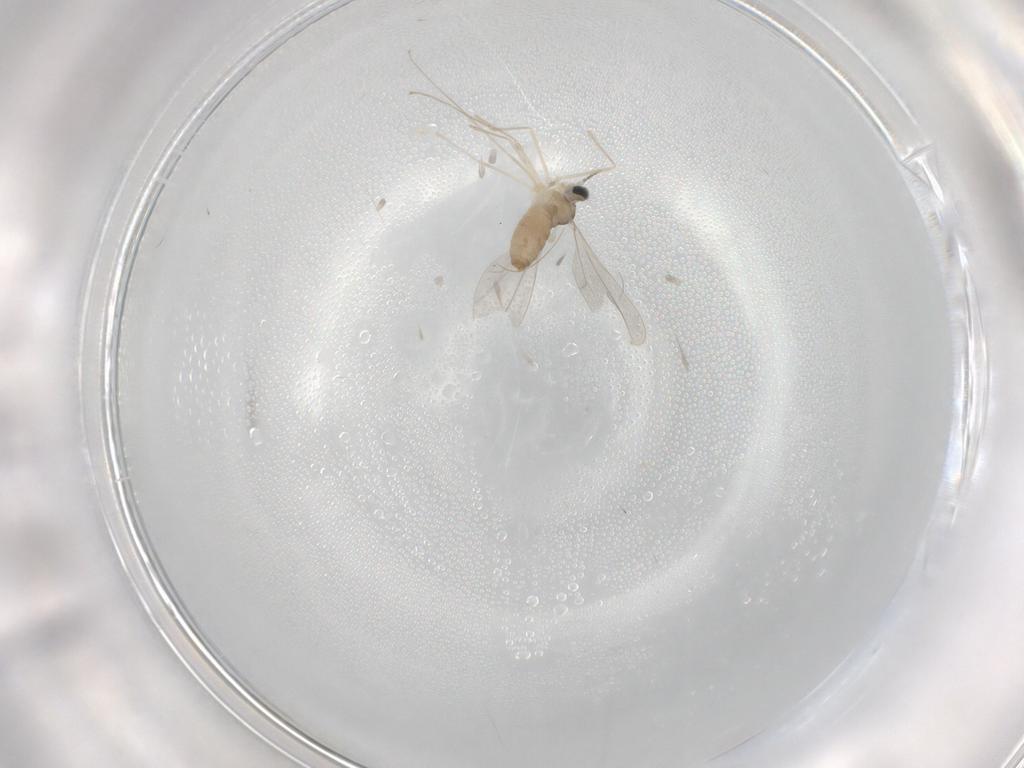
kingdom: Animalia
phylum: Arthropoda
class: Insecta
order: Diptera
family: Cecidomyiidae
